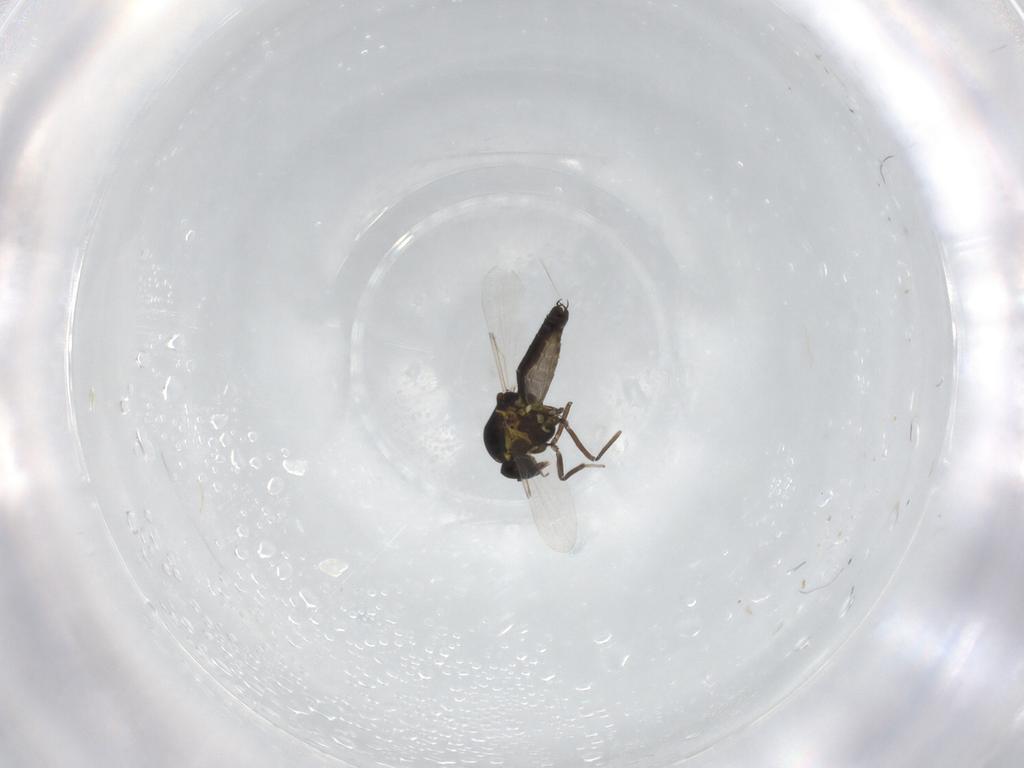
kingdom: Animalia
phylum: Arthropoda
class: Insecta
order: Diptera
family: Ceratopogonidae
